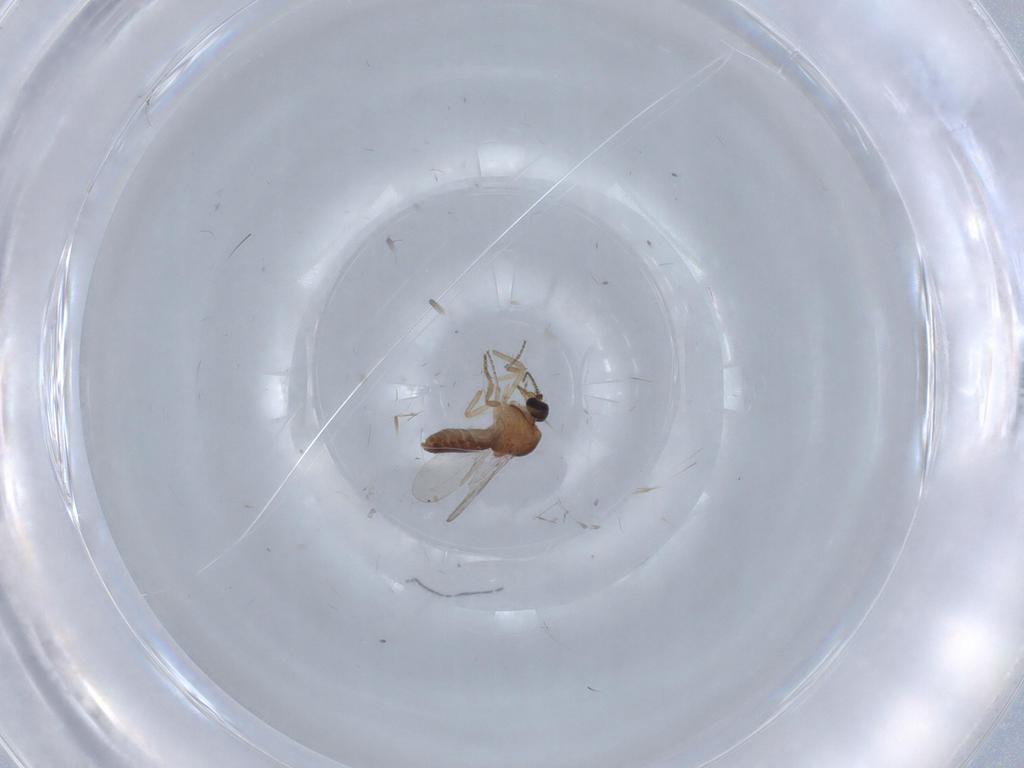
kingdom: Animalia
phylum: Arthropoda
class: Insecta
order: Diptera
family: Ceratopogonidae
